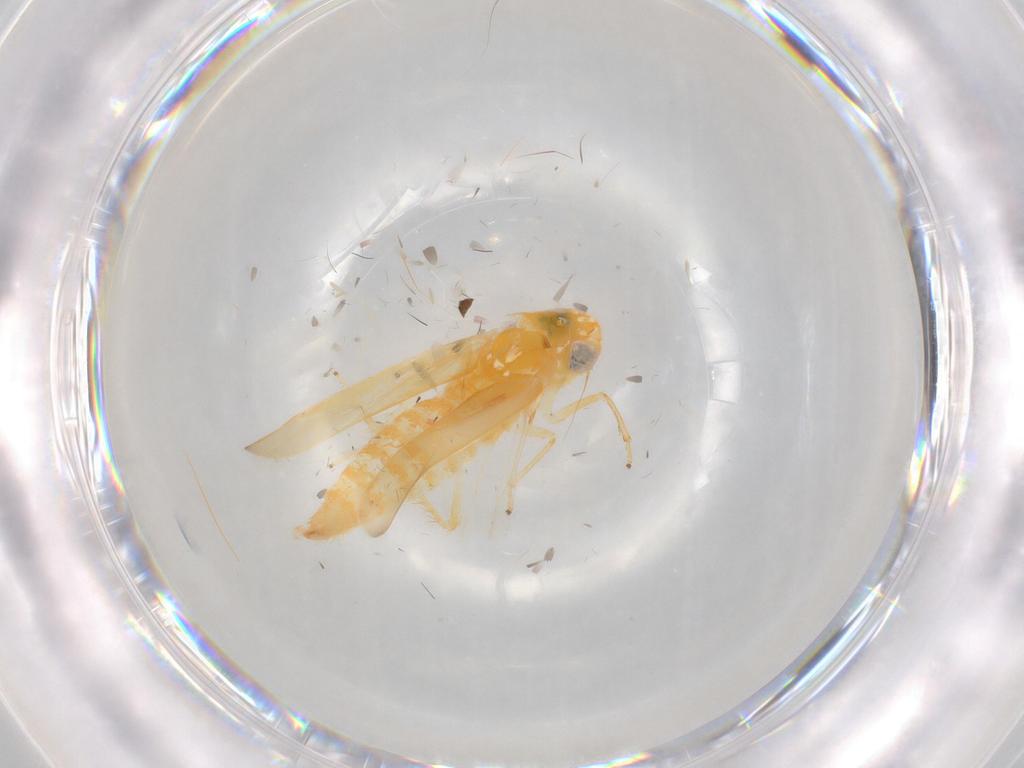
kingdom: Animalia
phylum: Arthropoda
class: Insecta
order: Hemiptera
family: Cicadellidae
